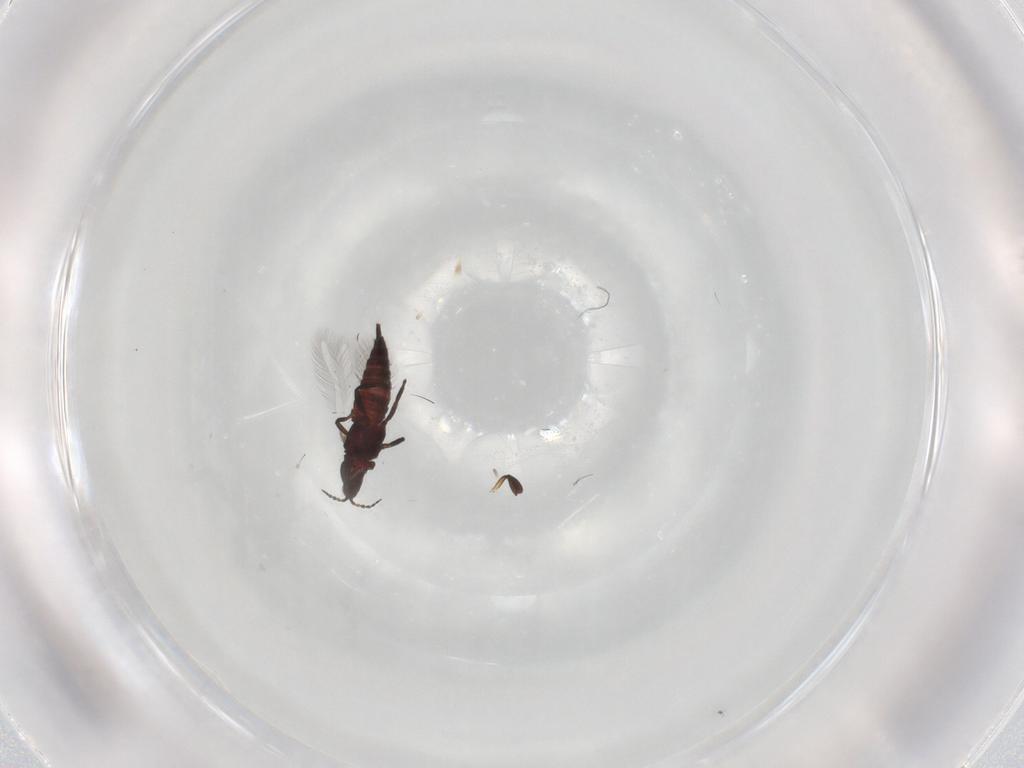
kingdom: Animalia
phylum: Arthropoda
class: Insecta
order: Thysanoptera
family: Phlaeothripidae
